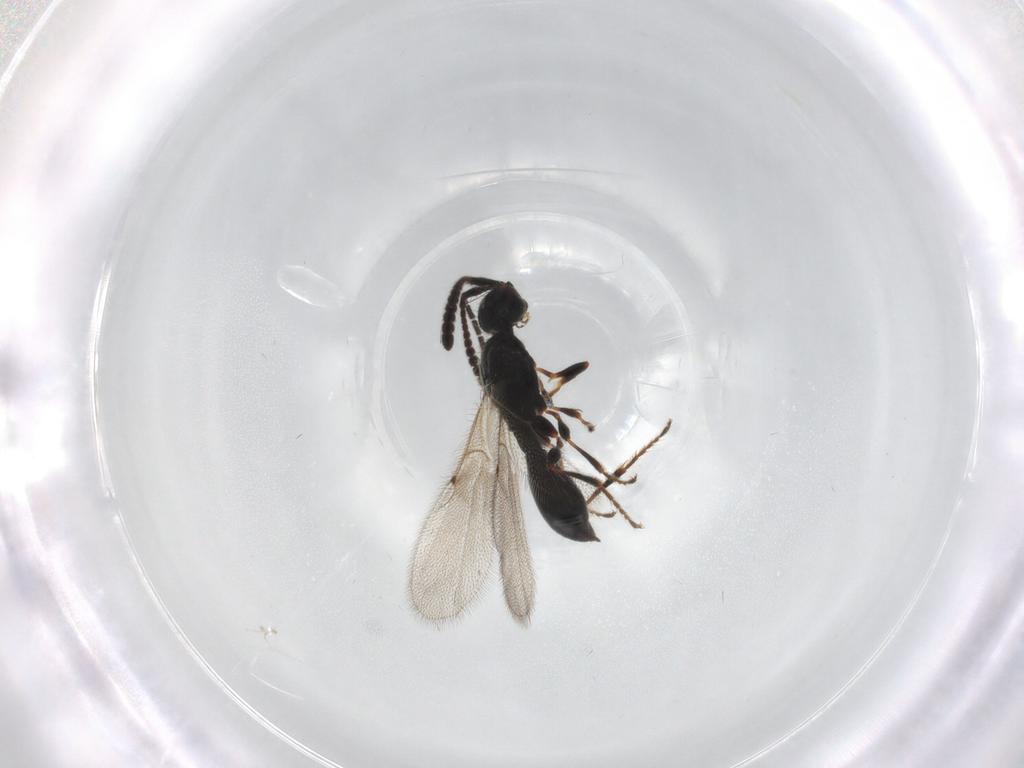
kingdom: Animalia
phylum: Arthropoda
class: Insecta
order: Hymenoptera
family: Diapriidae
